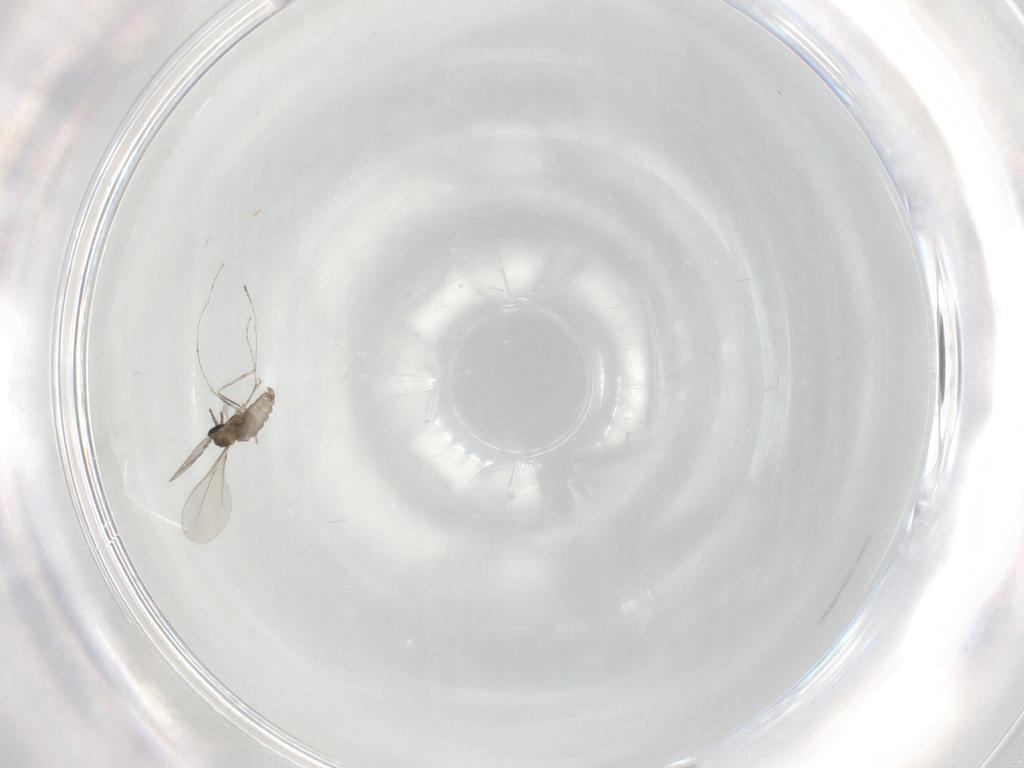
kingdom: Animalia
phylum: Arthropoda
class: Insecta
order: Diptera
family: Cecidomyiidae
